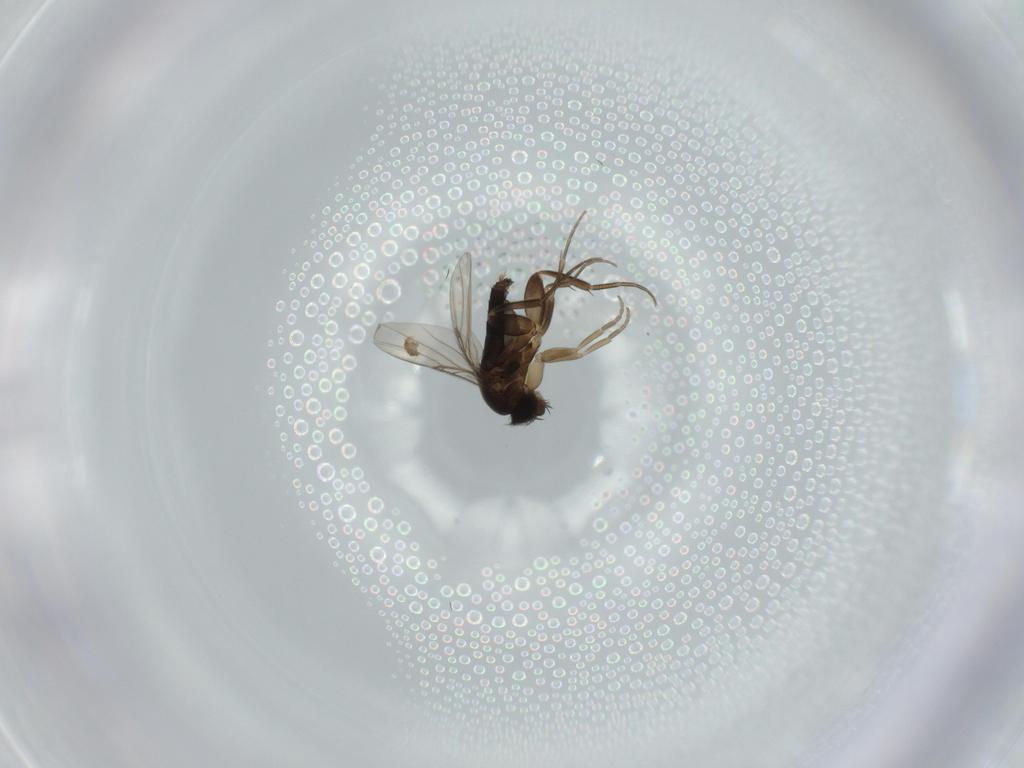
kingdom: Animalia
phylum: Arthropoda
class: Insecta
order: Diptera
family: Phoridae
